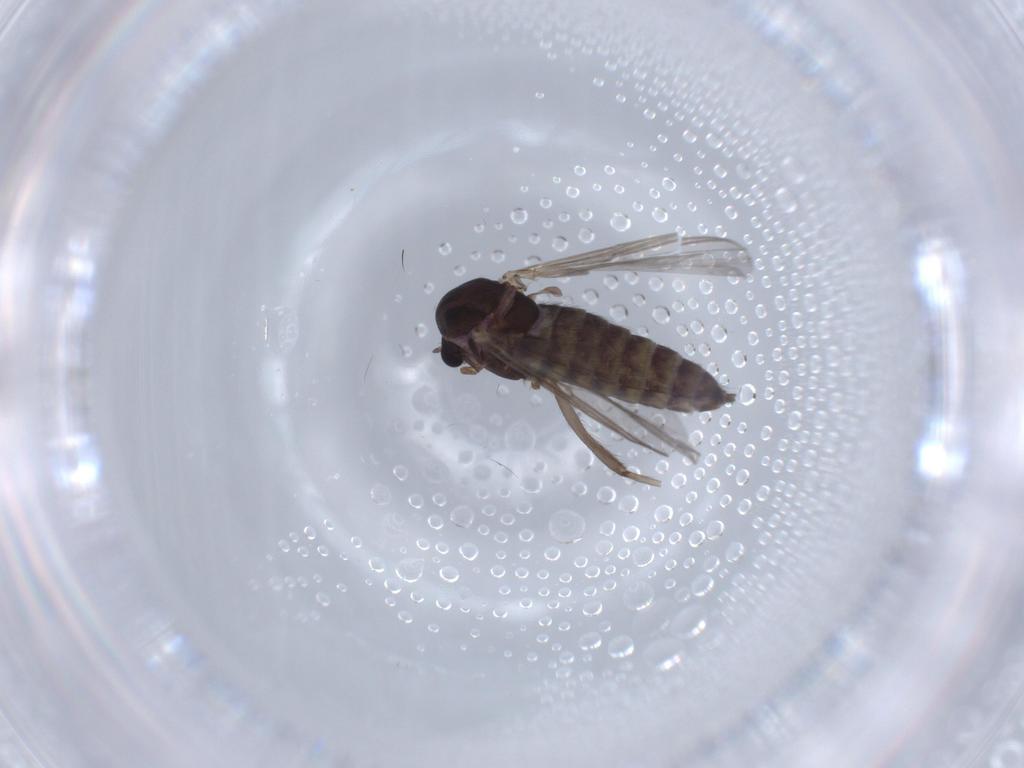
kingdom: Animalia
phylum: Arthropoda
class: Insecta
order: Diptera
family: Chironomidae
